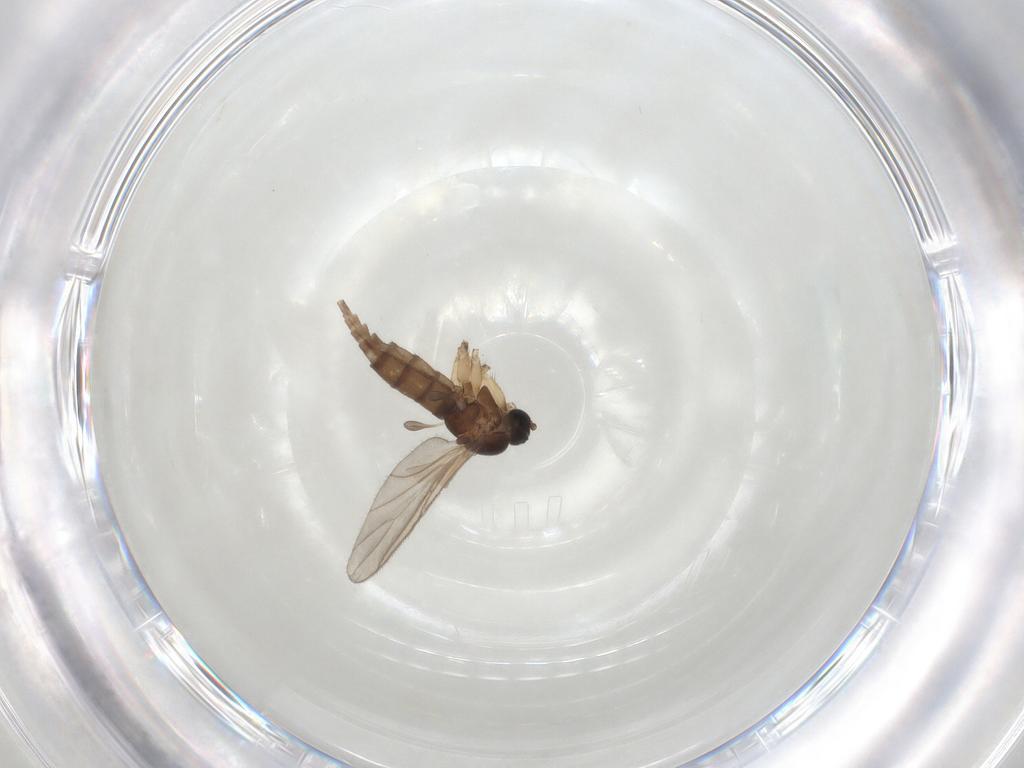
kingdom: Animalia
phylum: Arthropoda
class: Insecta
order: Diptera
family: Sciaridae
